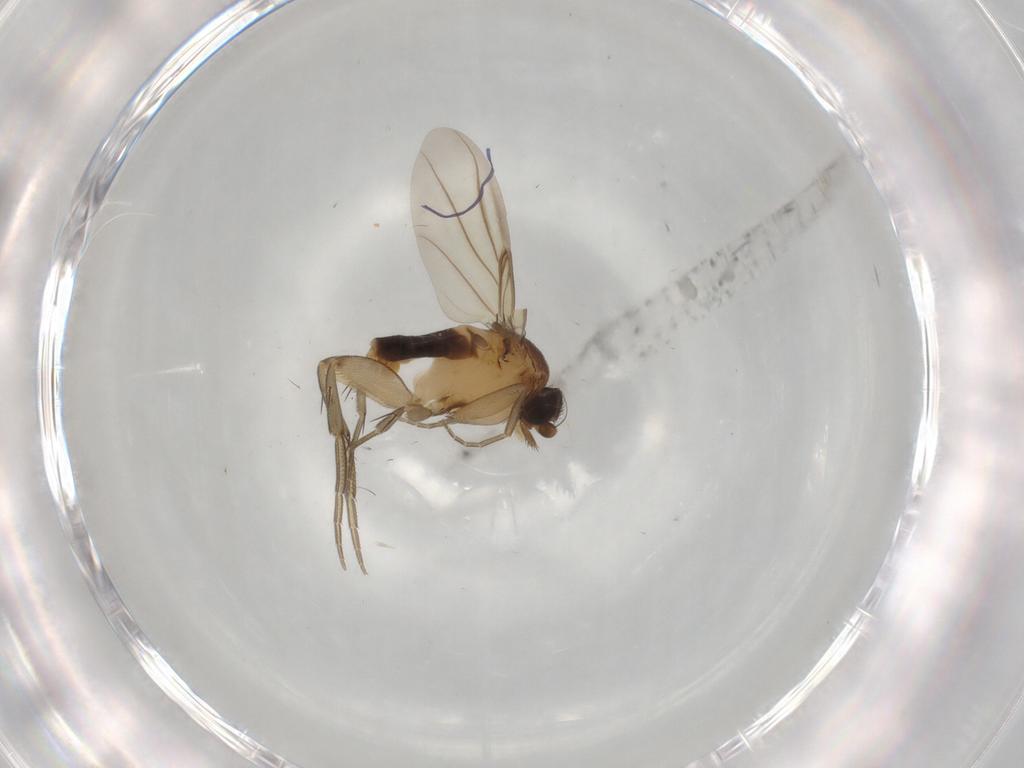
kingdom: Animalia
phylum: Arthropoda
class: Insecta
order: Diptera
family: Phoridae
